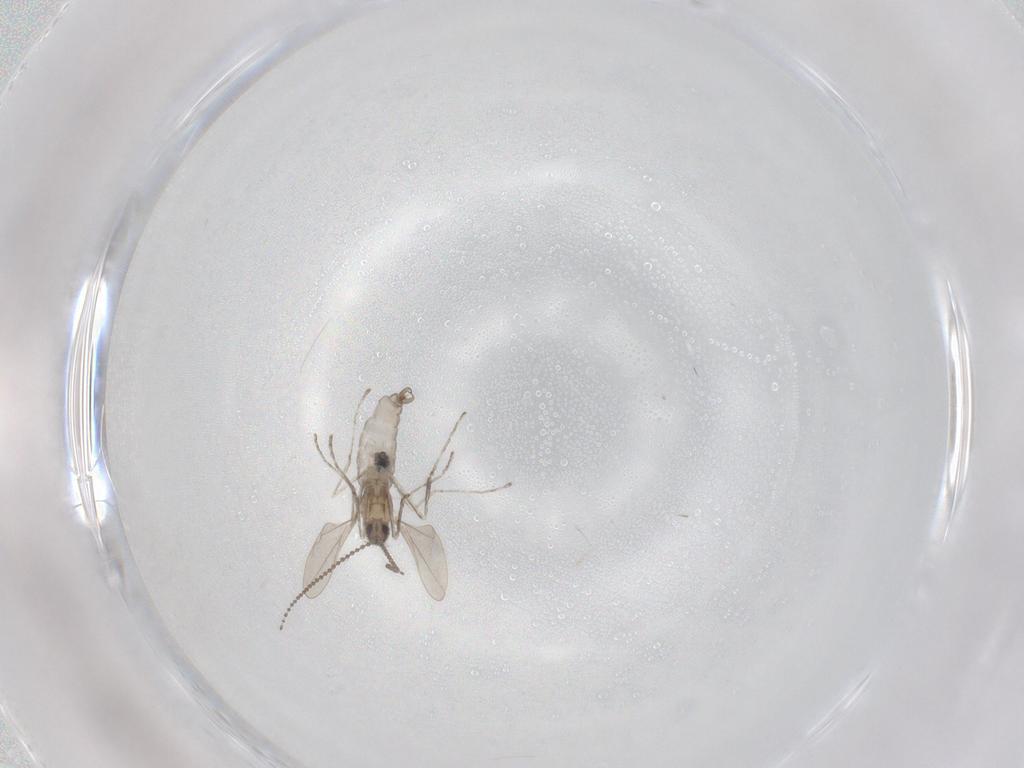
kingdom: Animalia
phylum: Arthropoda
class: Insecta
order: Diptera
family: Cecidomyiidae
